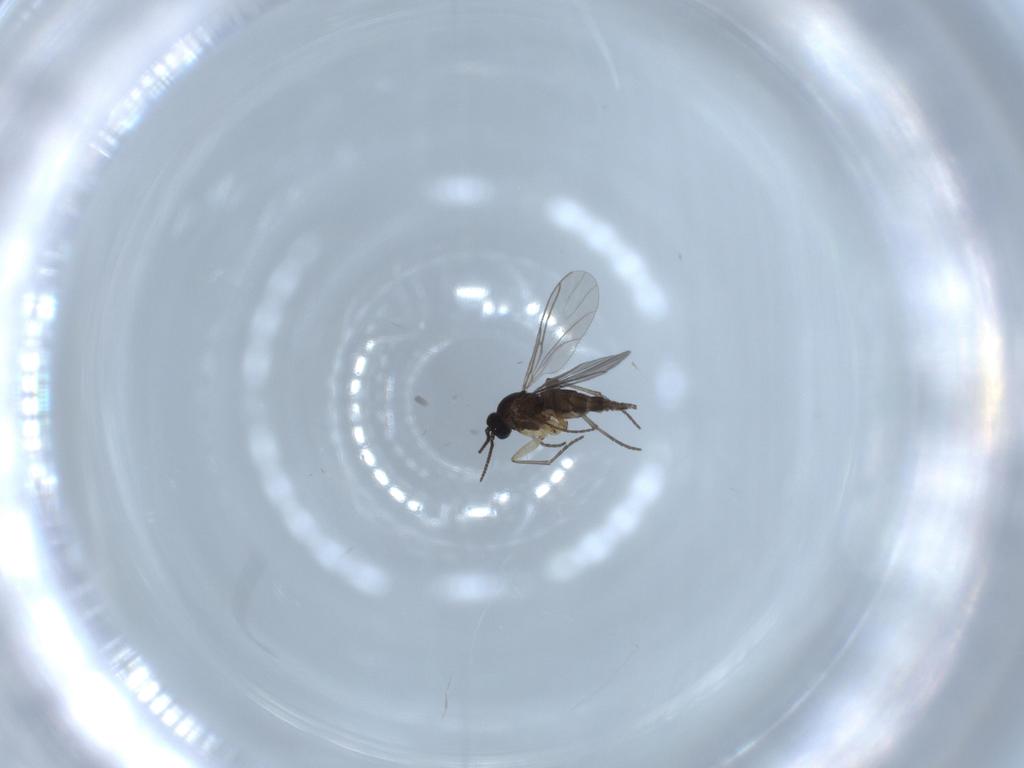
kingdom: Animalia
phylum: Arthropoda
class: Insecta
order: Diptera
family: Sciaridae
